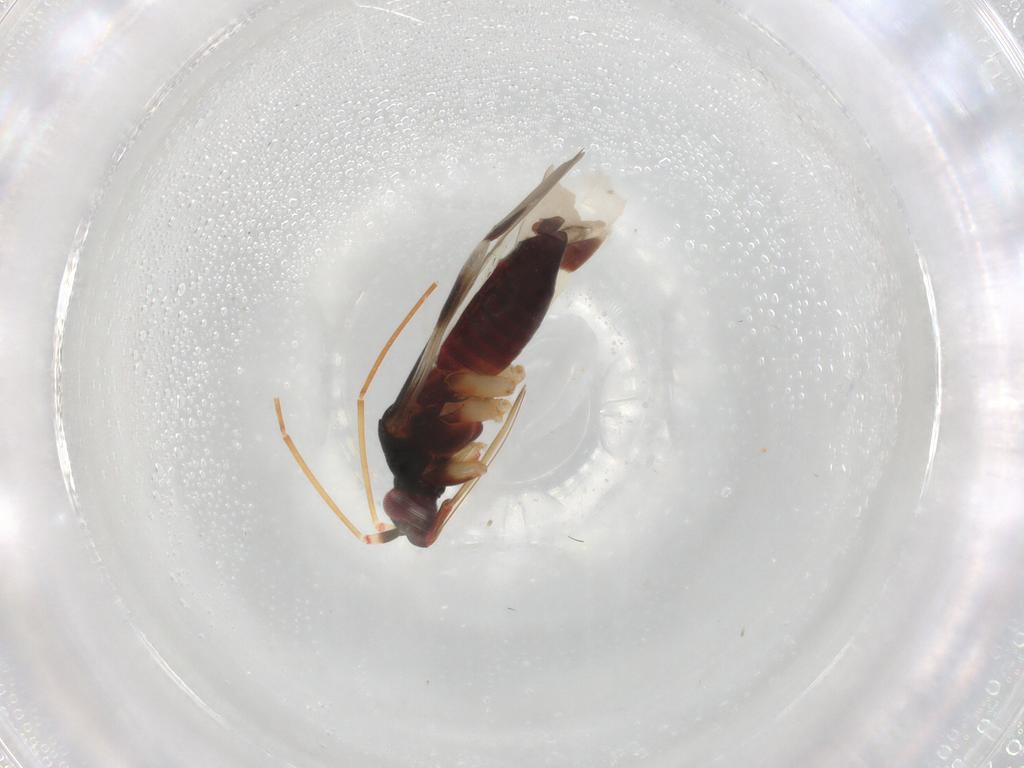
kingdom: Animalia
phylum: Arthropoda
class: Insecta
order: Hemiptera
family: Miridae
